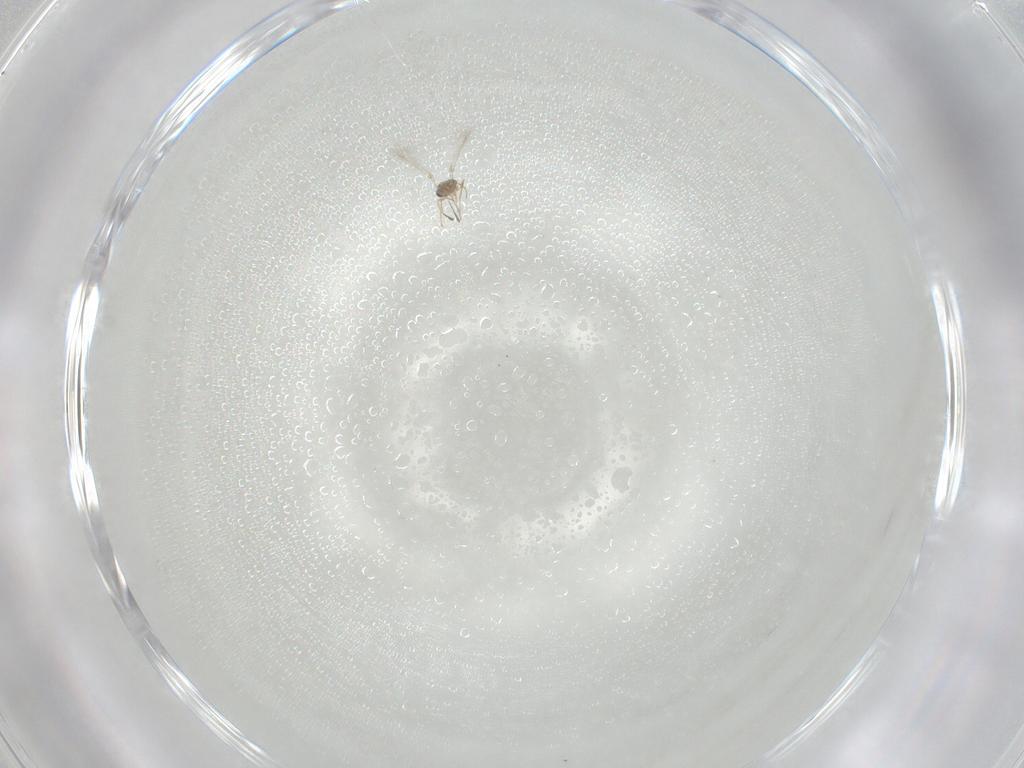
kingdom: Animalia
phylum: Arthropoda
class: Insecta
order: Hymenoptera
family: Mymaridae
